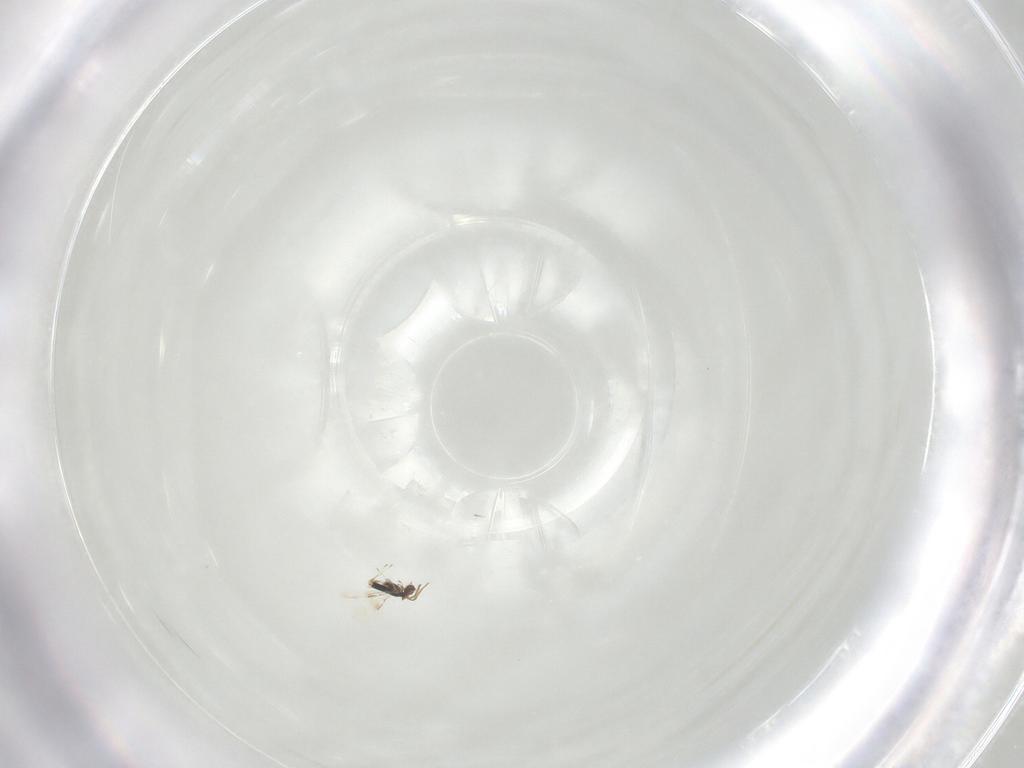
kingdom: Animalia
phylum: Arthropoda
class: Insecta
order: Hymenoptera
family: Azotidae
